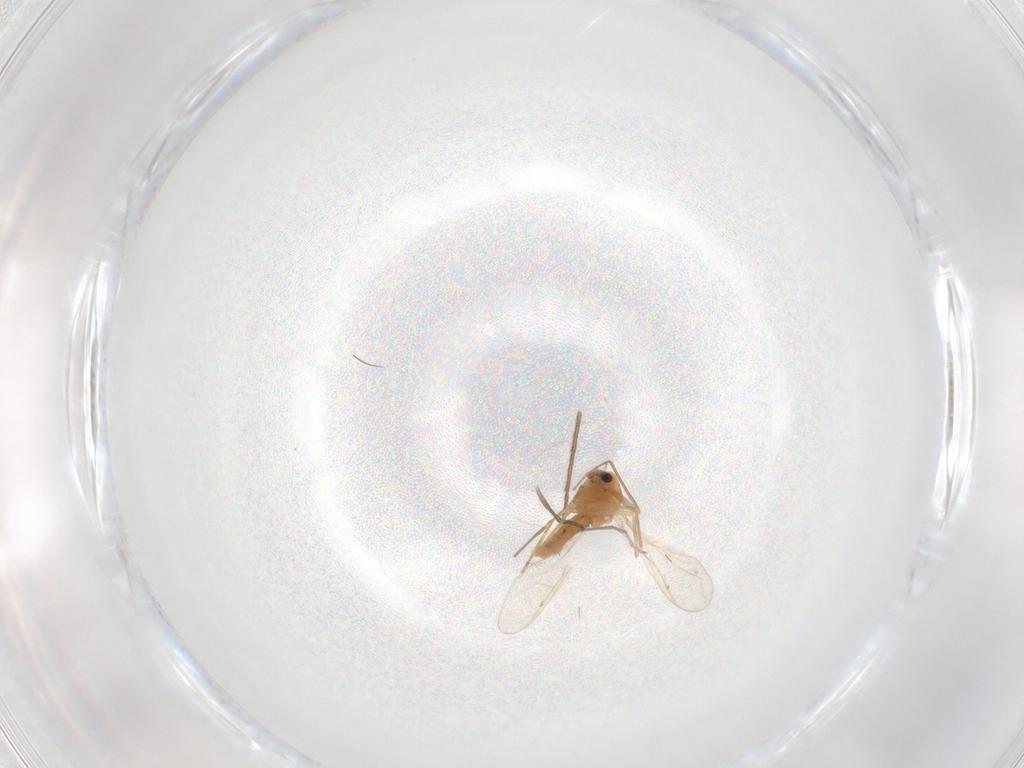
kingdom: Animalia
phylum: Arthropoda
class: Insecta
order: Diptera
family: Chironomidae
